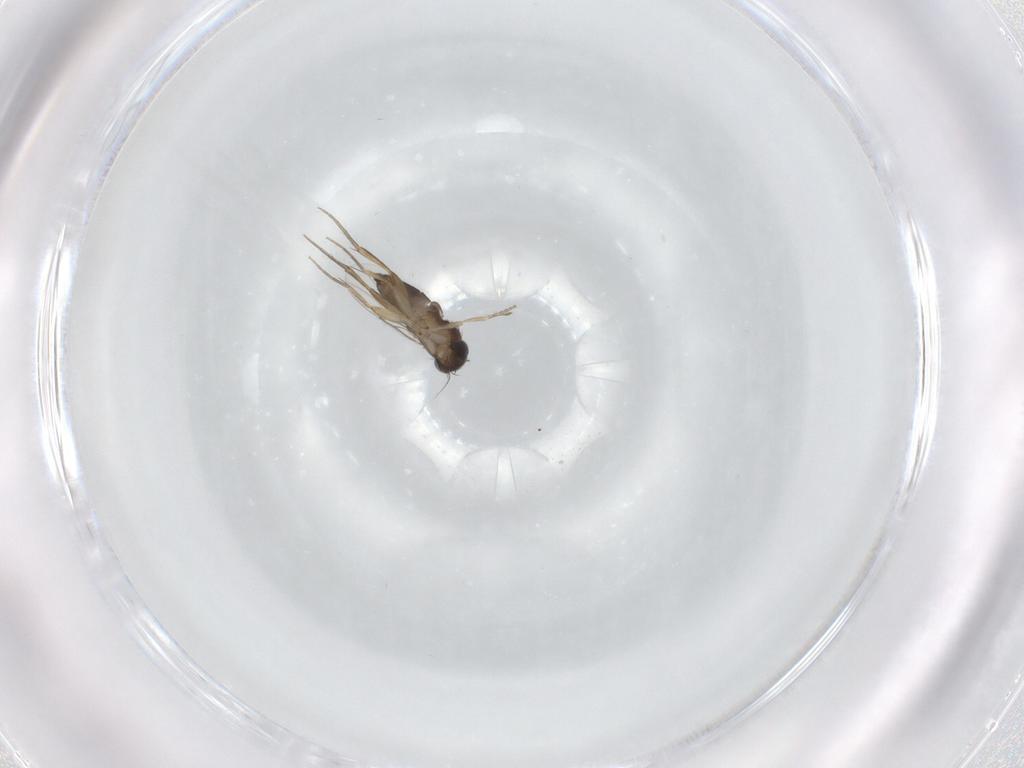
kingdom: Animalia
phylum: Arthropoda
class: Insecta
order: Diptera
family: Phoridae
